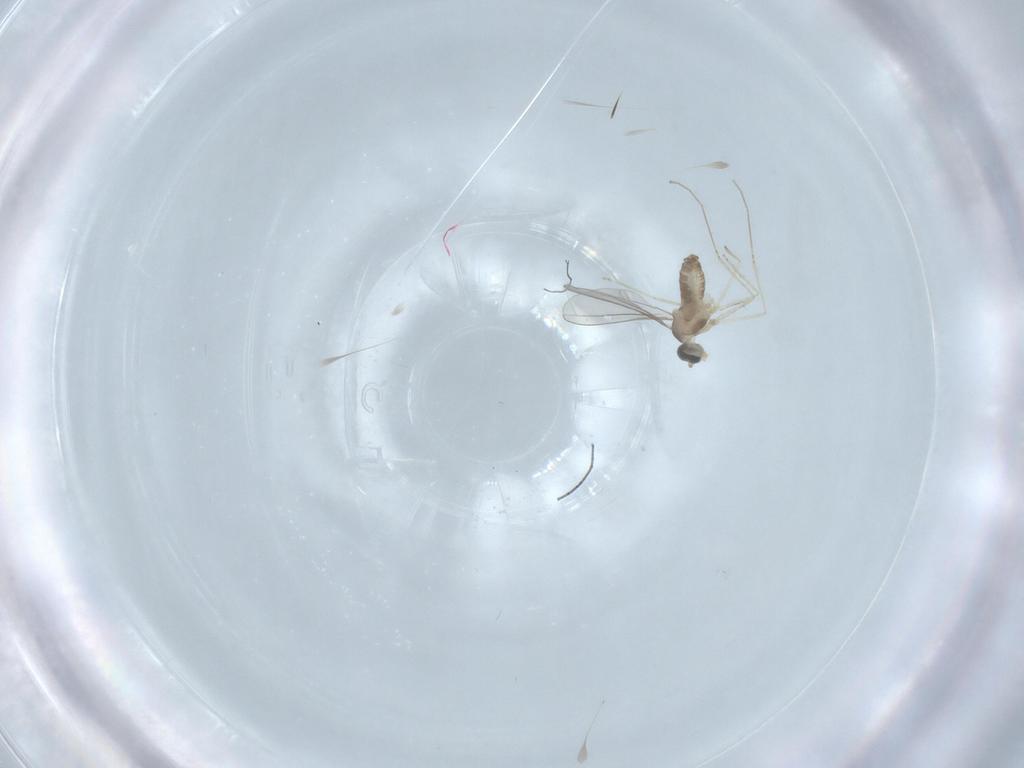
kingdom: Animalia
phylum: Arthropoda
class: Insecta
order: Diptera
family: Cecidomyiidae
